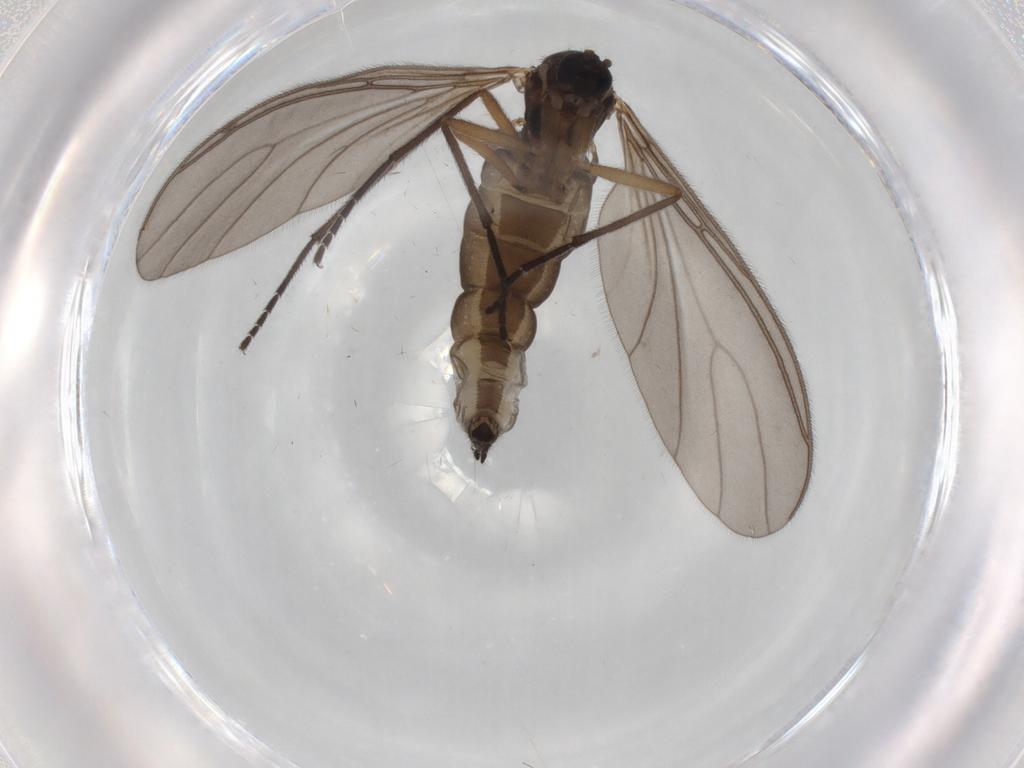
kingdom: Animalia
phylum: Arthropoda
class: Insecta
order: Diptera
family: Sciaridae
